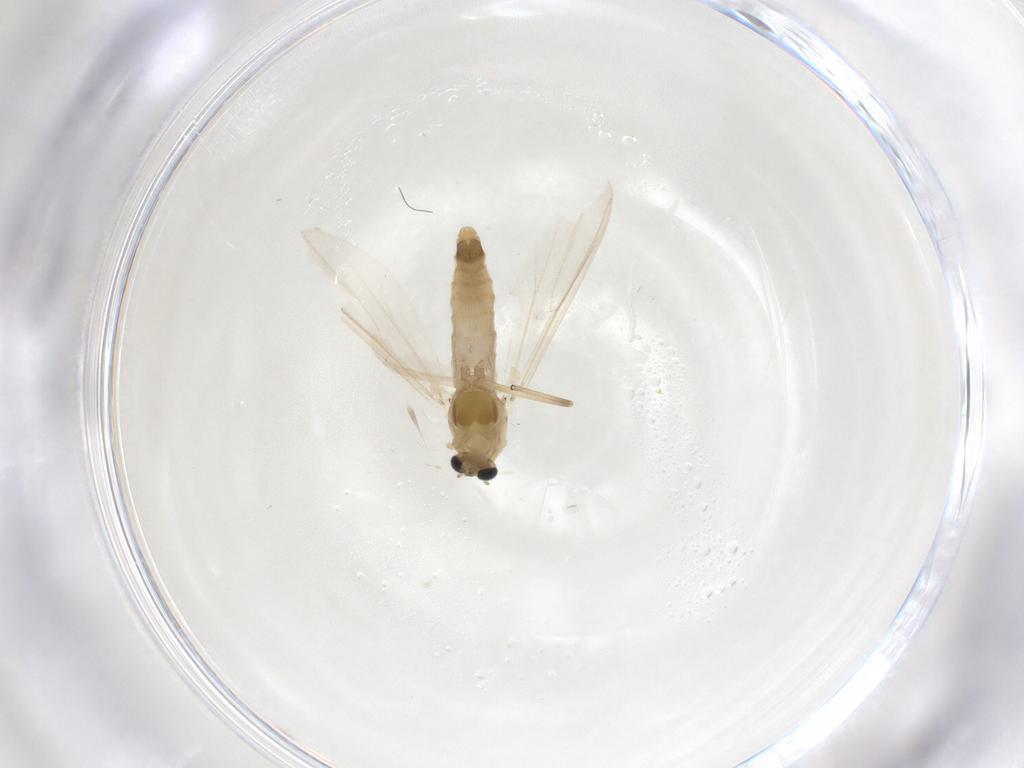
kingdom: Animalia
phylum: Arthropoda
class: Insecta
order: Diptera
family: Chironomidae
